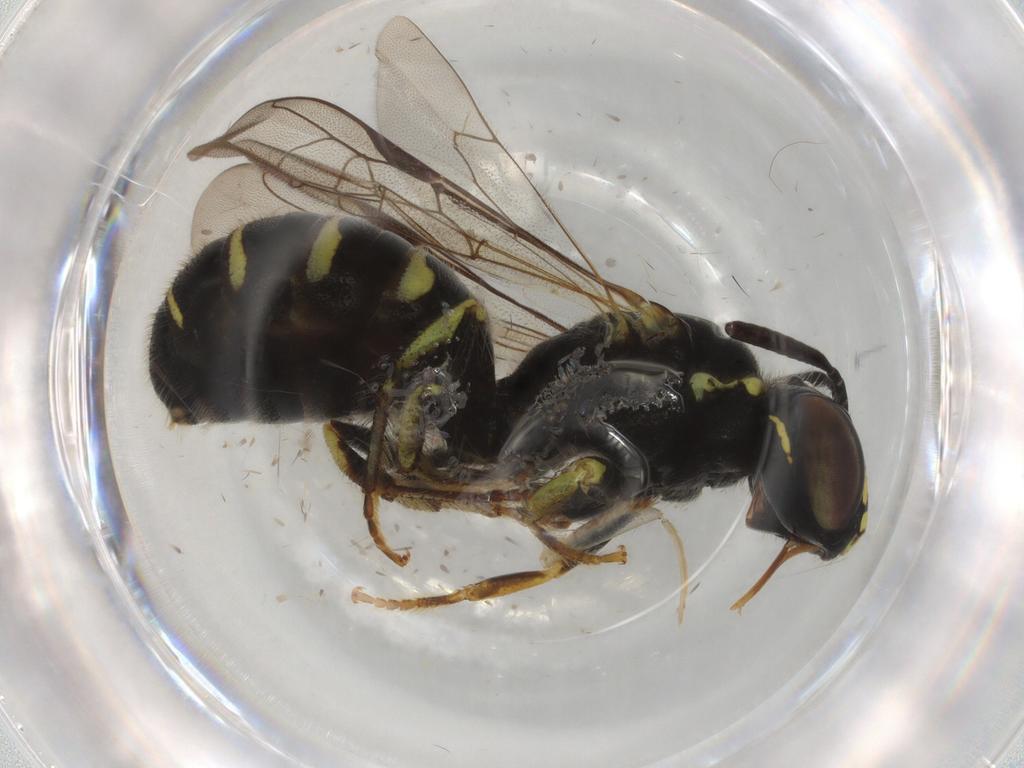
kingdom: Animalia
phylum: Arthropoda
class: Insecta
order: Hymenoptera
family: Apidae
